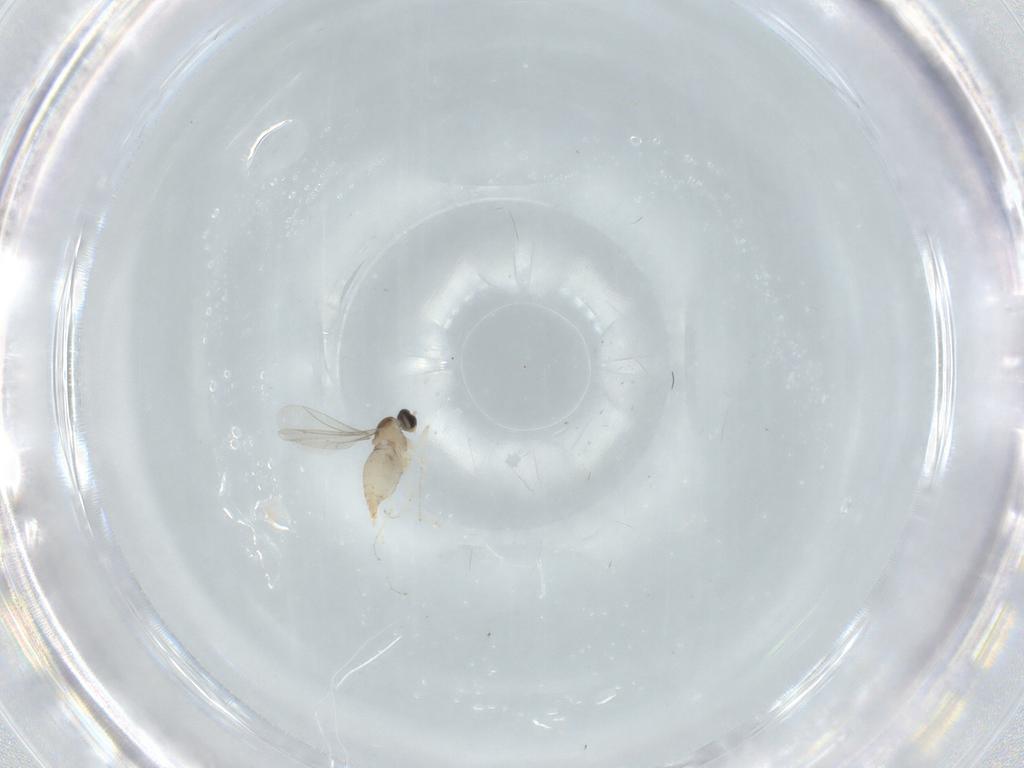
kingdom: Animalia
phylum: Arthropoda
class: Insecta
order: Diptera
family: Cecidomyiidae
